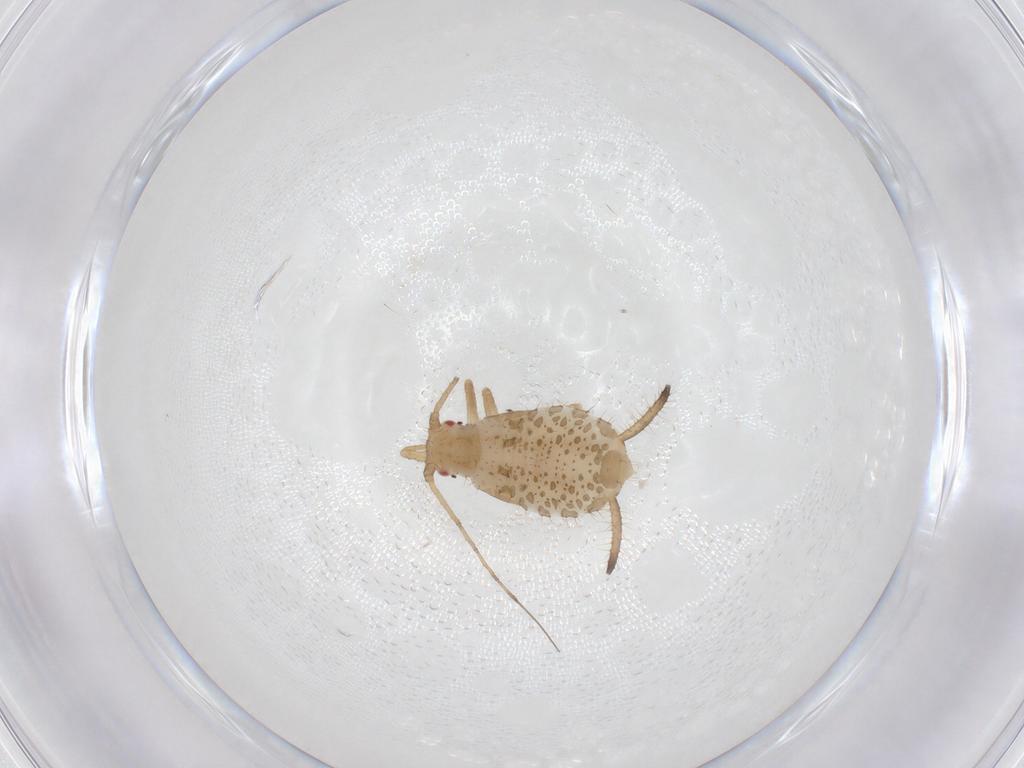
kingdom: Animalia
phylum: Arthropoda
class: Insecta
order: Hemiptera
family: Aphididae
